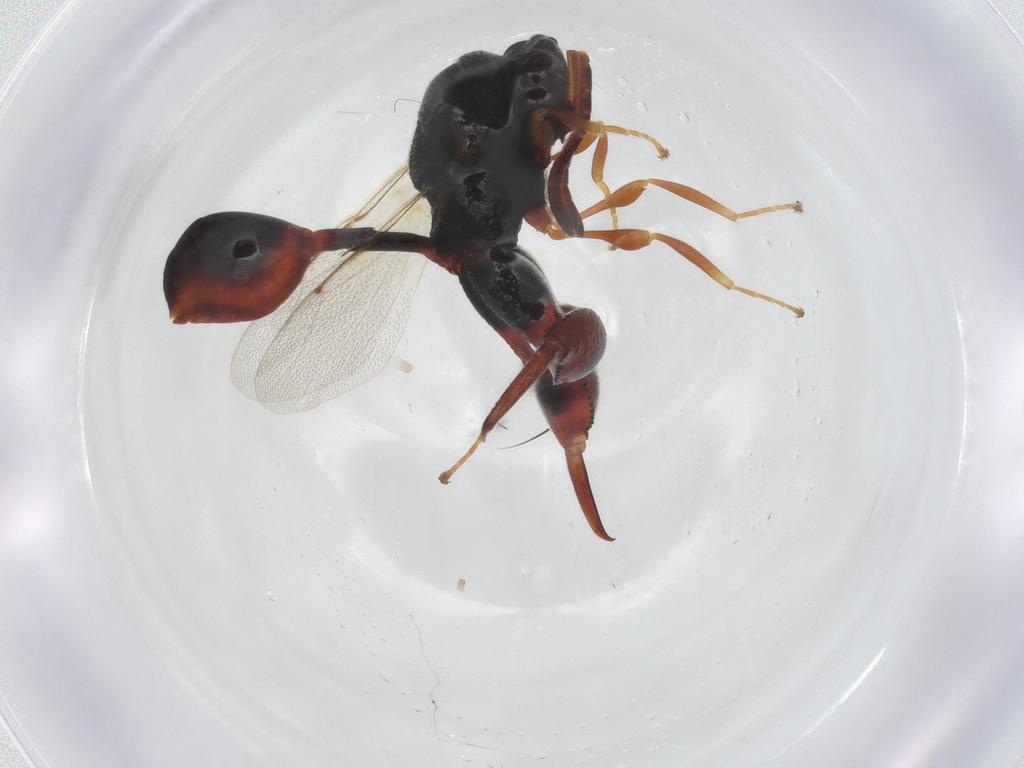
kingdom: Animalia
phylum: Arthropoda
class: Insecta
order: Hymenoptera
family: Chalcididae
